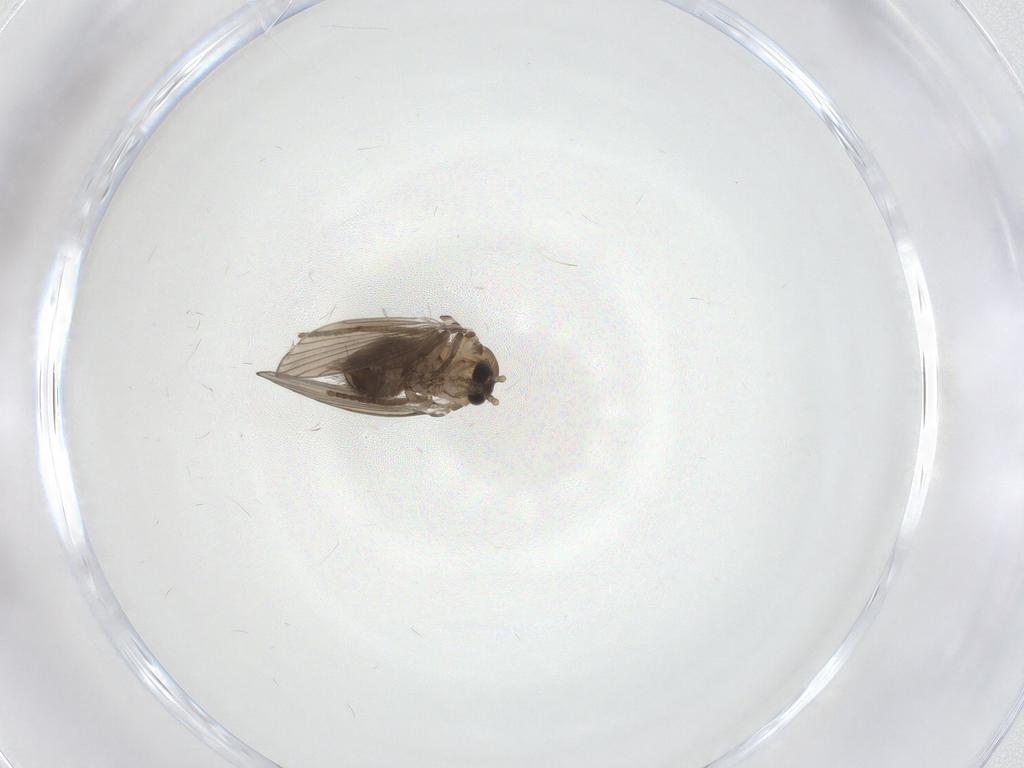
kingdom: Animalia
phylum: Arthropoda
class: Insecta
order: Diptera
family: Psychodidae
